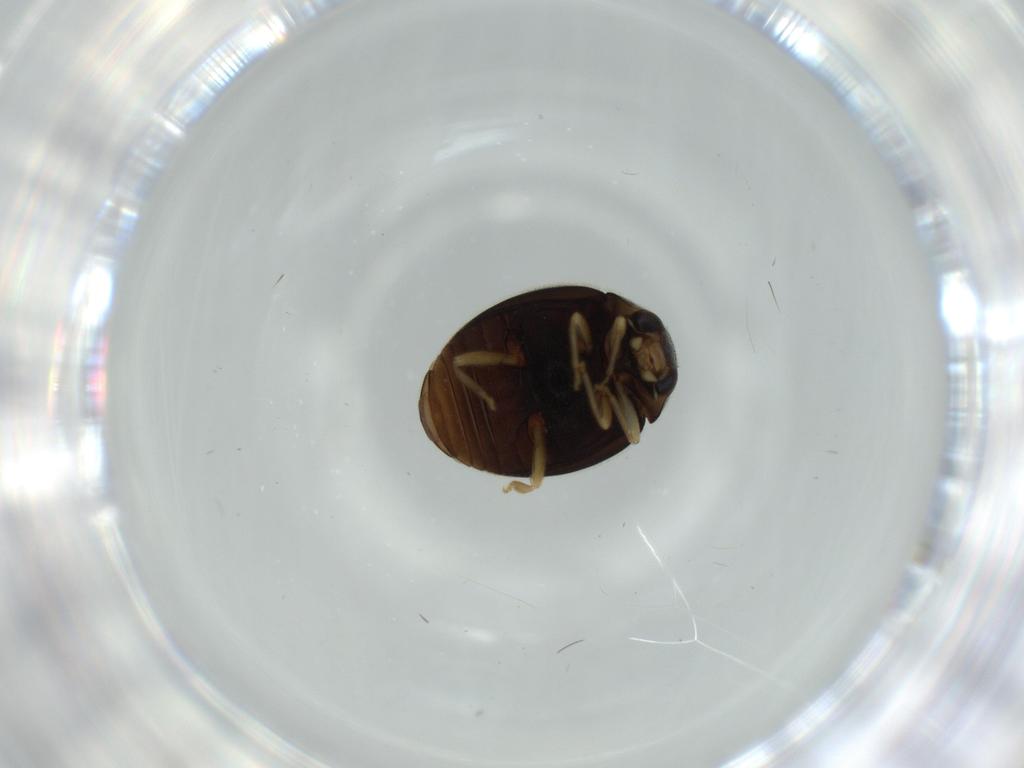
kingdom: Animalia
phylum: Arthropoda
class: Insecta
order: Coleoptera
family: Coccinellidae
